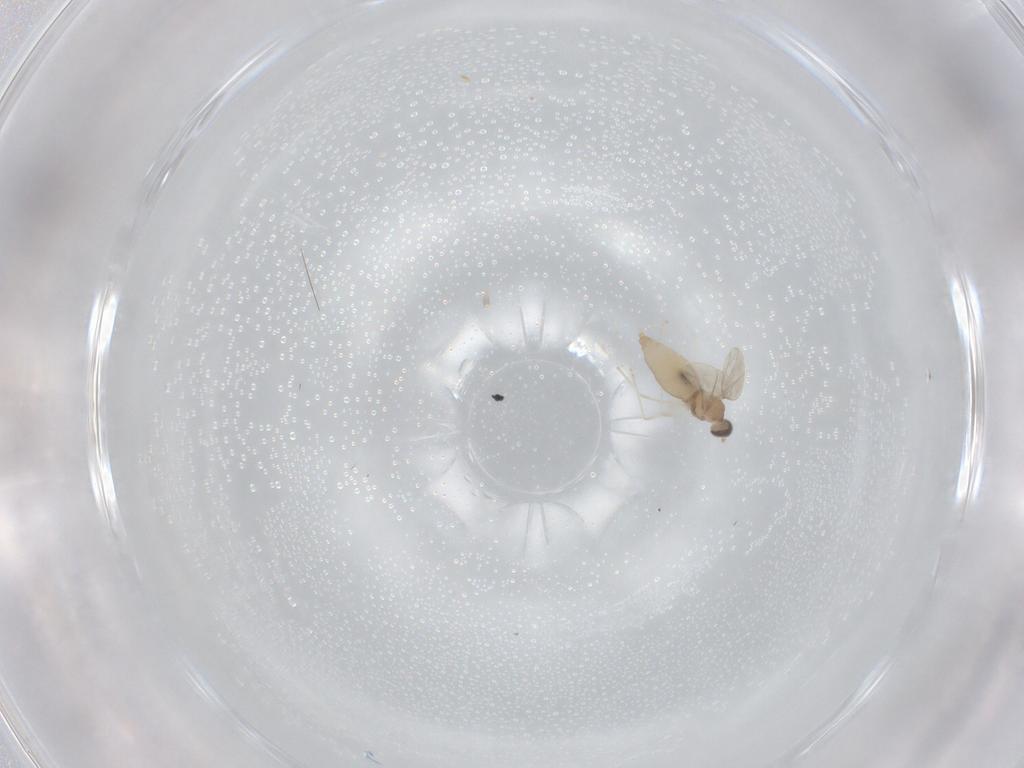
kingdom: Animalia
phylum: Arthropoda
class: Insecta
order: Diptera
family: Cecidomyiidae
